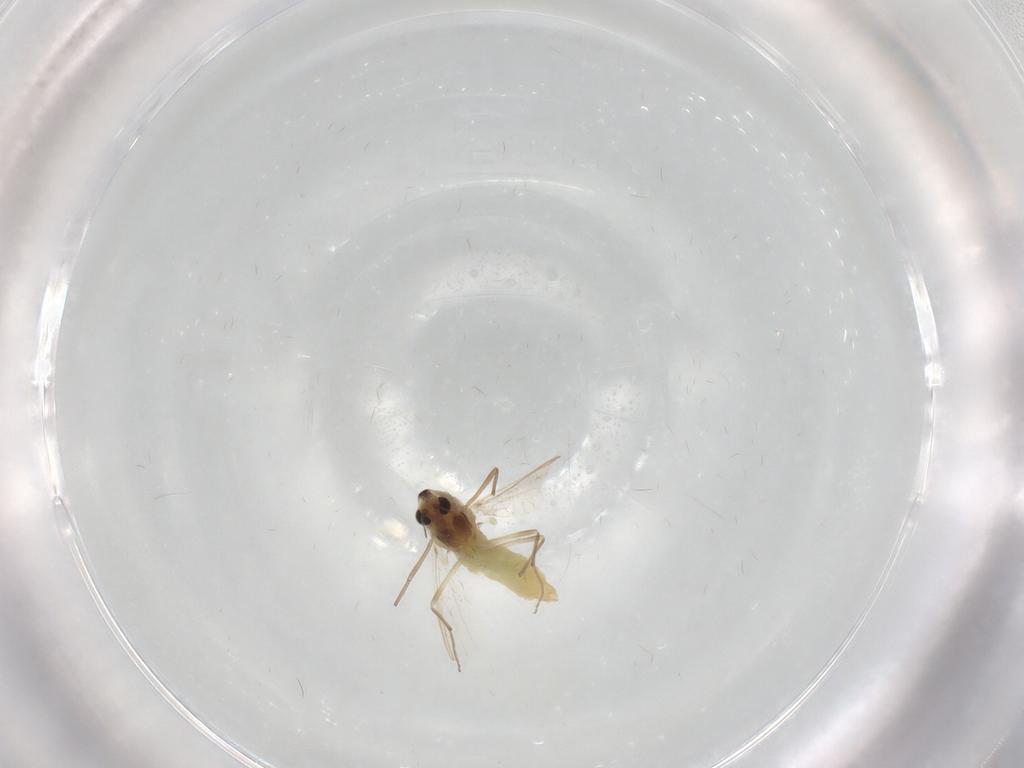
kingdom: Animalia
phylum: Arthropoda
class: Insecta
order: Diptera
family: Chironomidae
